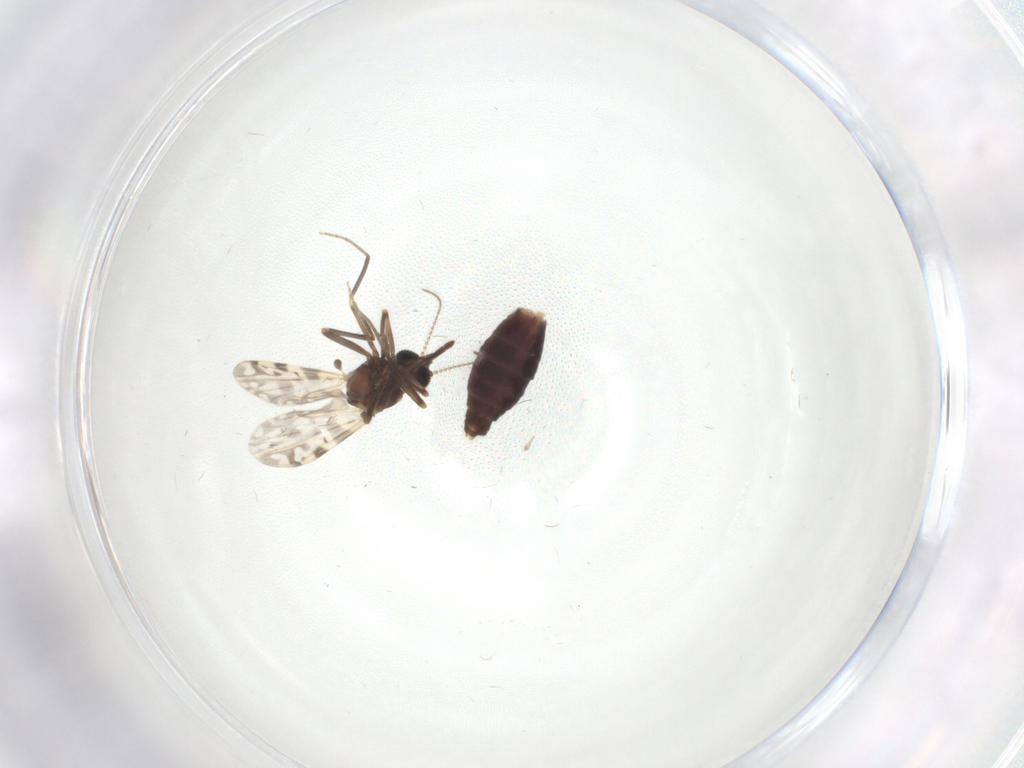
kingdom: Animalia
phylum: Arthropoda
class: Insecta
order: Diptera
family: Ceratopogonidae
